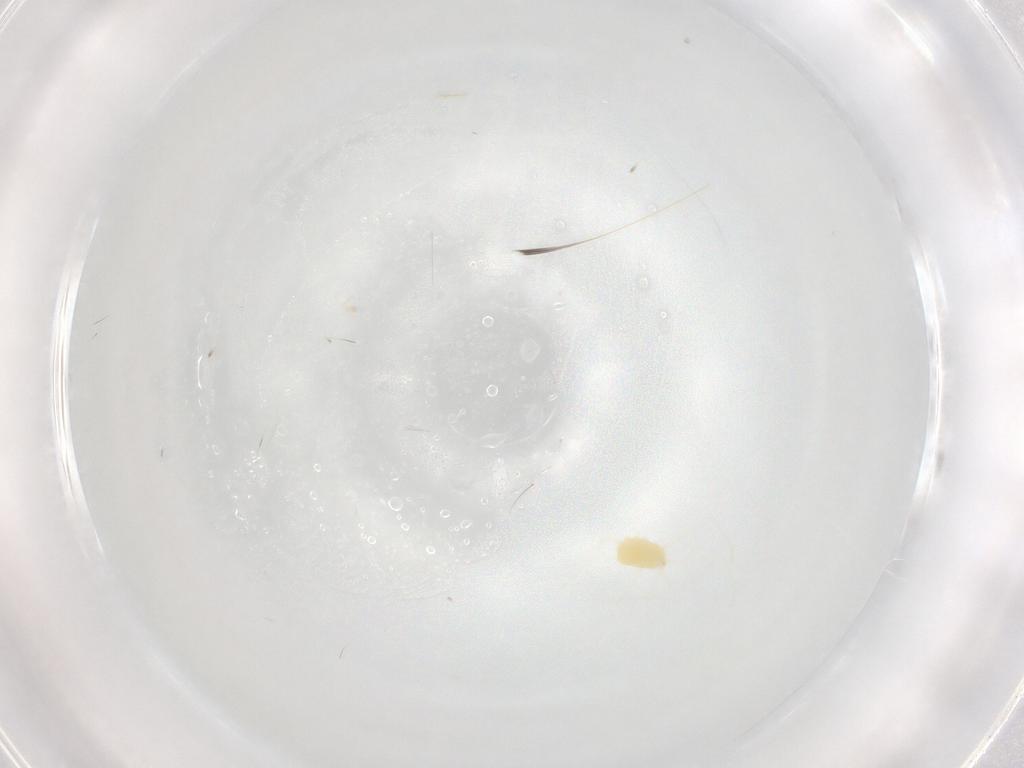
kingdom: Animalia
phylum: Arthropoda
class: Arachnida
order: Trombidiformes
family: Tetranychidae
